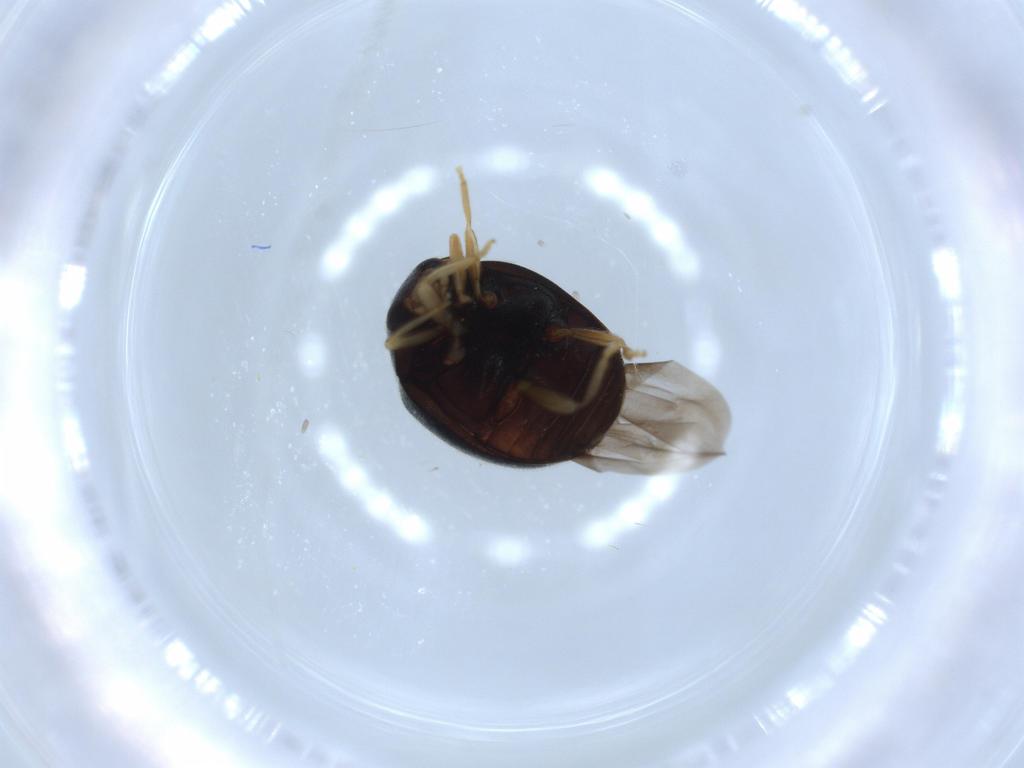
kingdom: Animalia
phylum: Arthropoda
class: Insecta
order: Coleoptera
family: Coccinellidae
